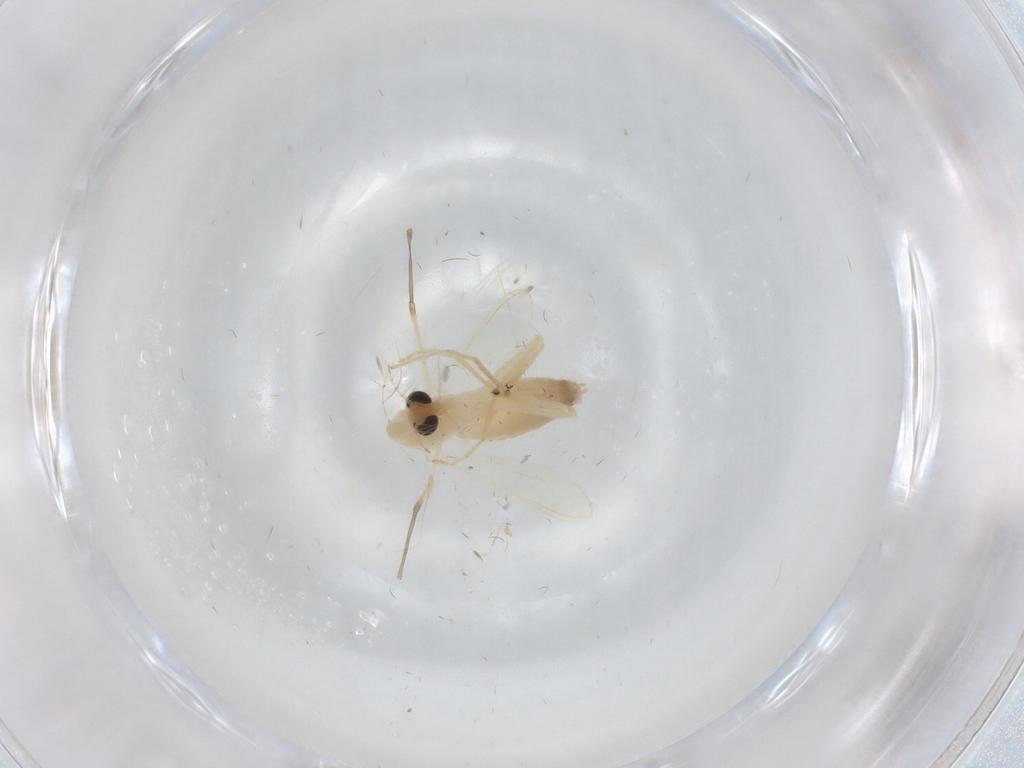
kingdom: Animalia
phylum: Arthropoda
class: Insecta
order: Diptera
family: Chironomidae
